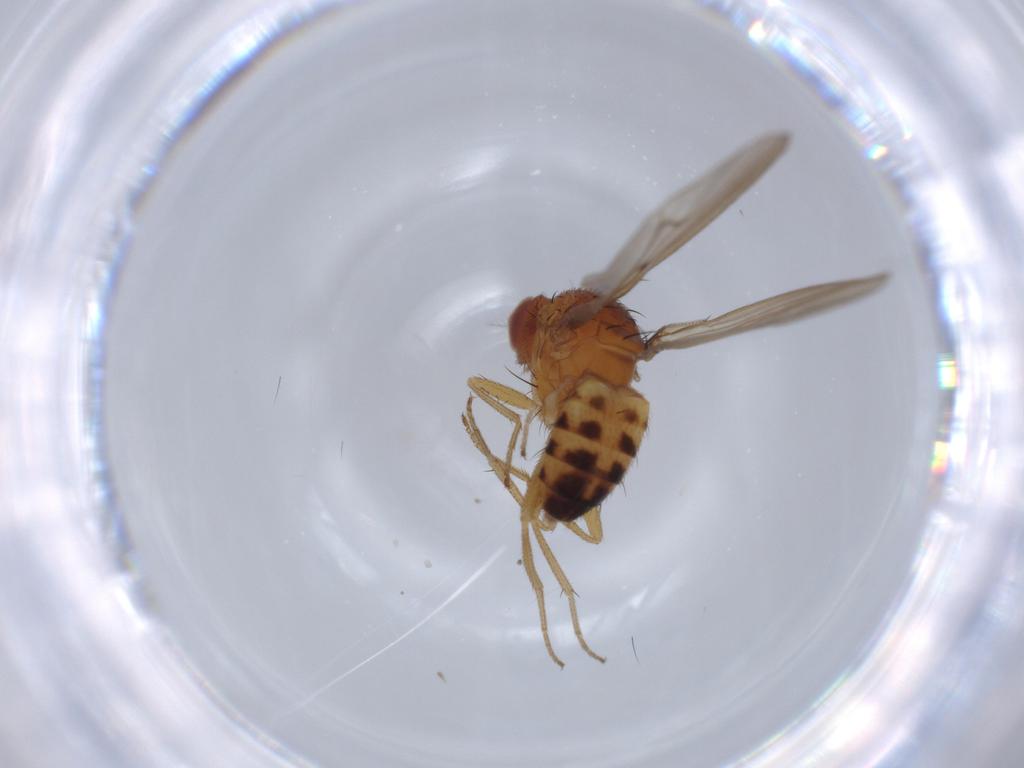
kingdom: Animalia
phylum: Arthropoda
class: Insecta
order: Diptera
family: Drosophilidae
